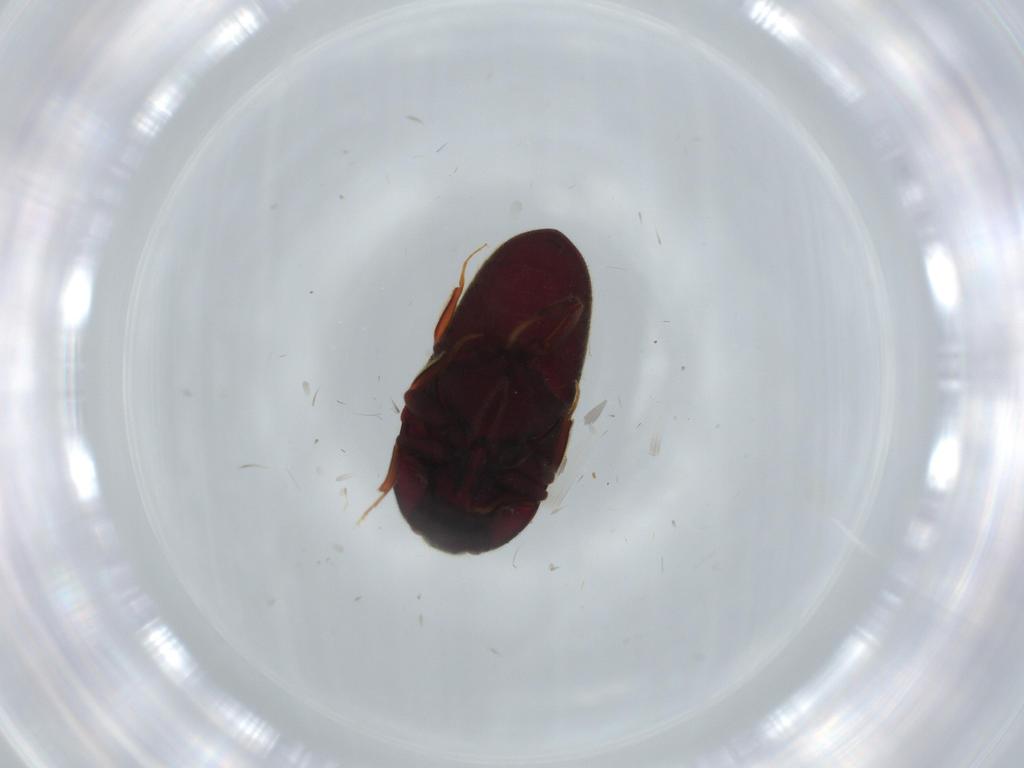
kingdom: Animalia
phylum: Arthropoda
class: Insecta
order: Coleoptera
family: Throscidae
